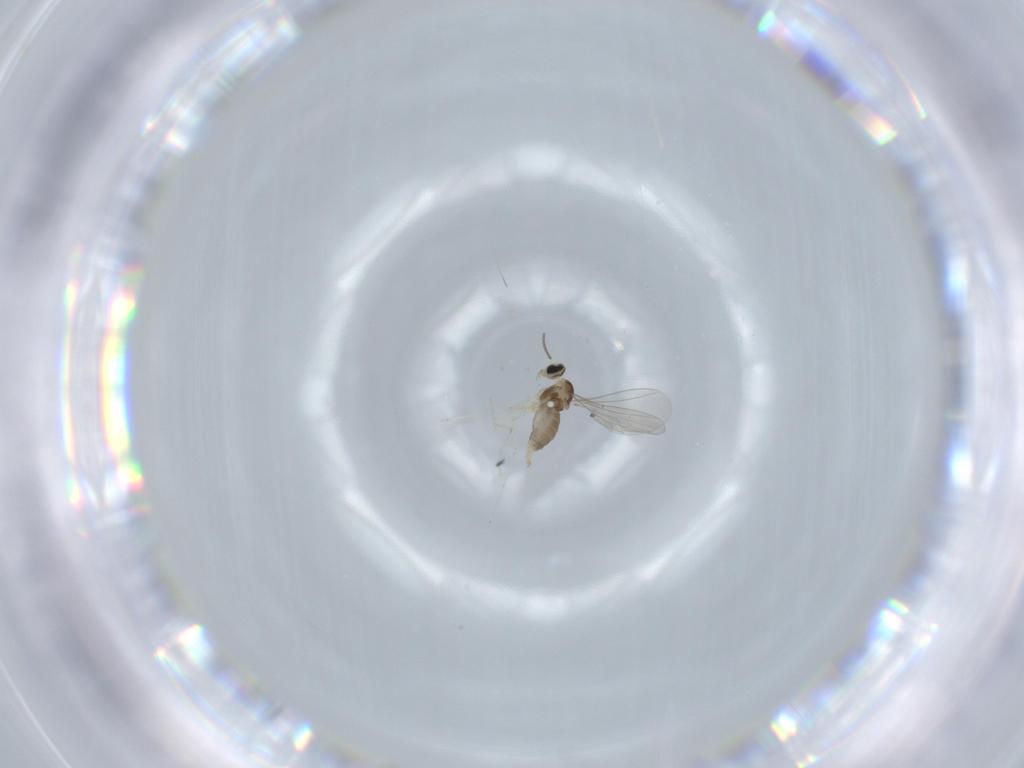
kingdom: Animalia
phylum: Arthropoda
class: Insecta
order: Diptera
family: Cecidomyiidae
